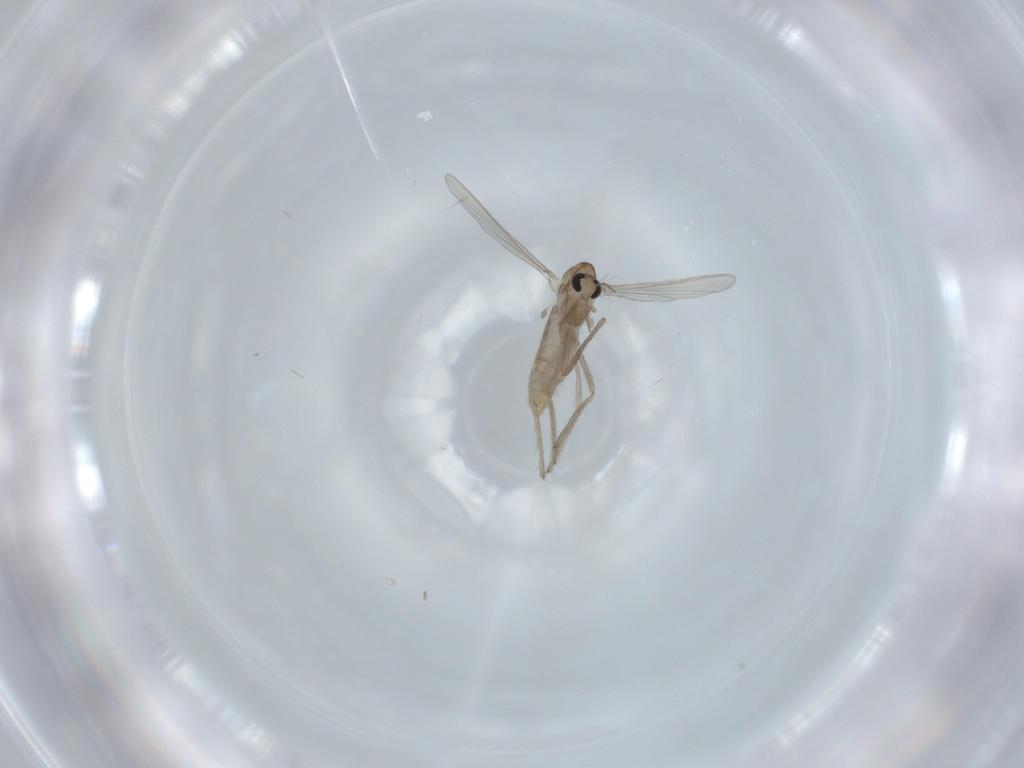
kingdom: Animalia
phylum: Arthropoda
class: Insecta
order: Diptera
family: Chironomidae
